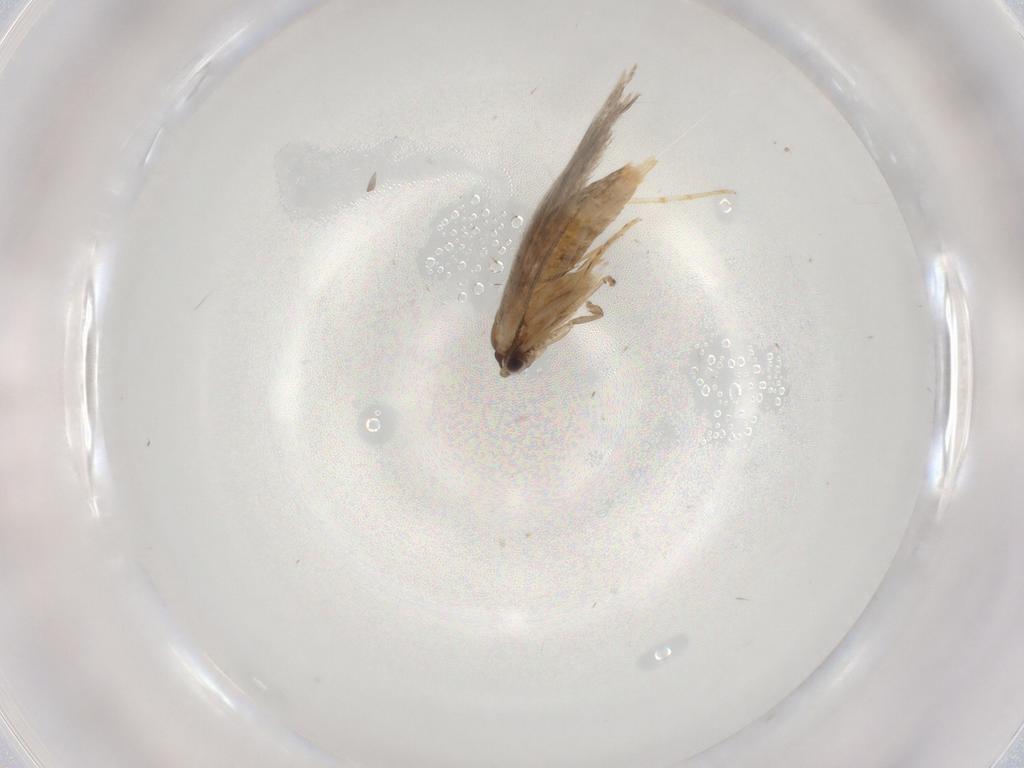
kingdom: Animalia
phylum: Arthropoda
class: Insecta
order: Lepidoptera
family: Tineidae
